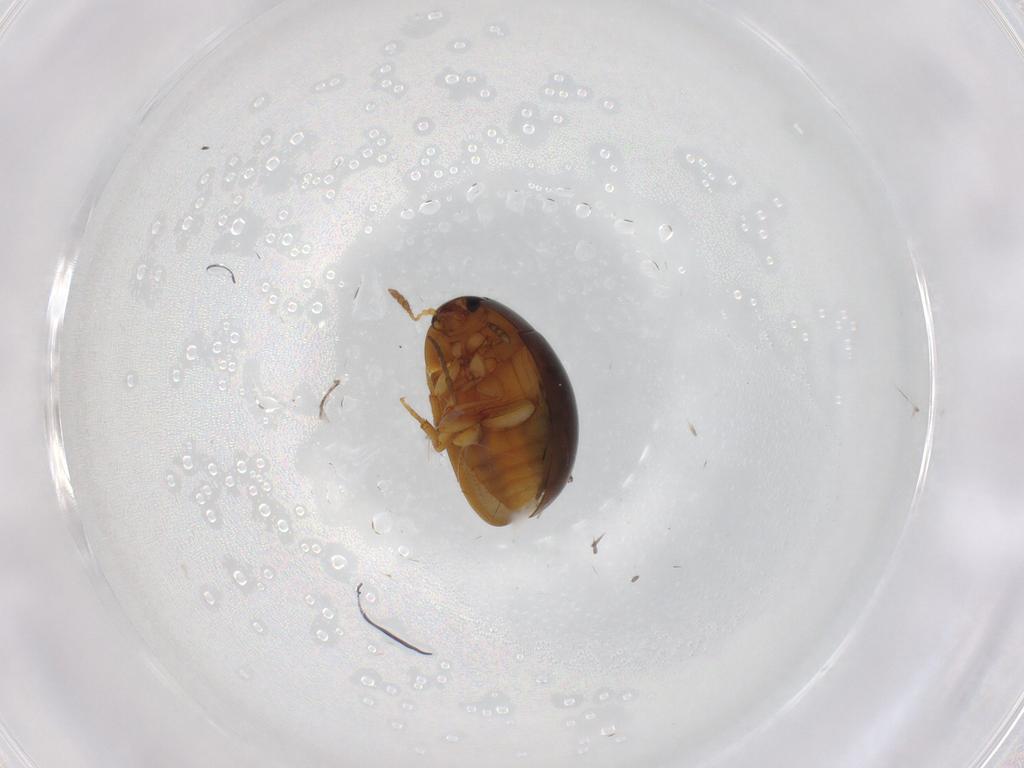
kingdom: Animalia
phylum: Arthropoda
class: Insecta
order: Coleoptera
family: Phalacridae
